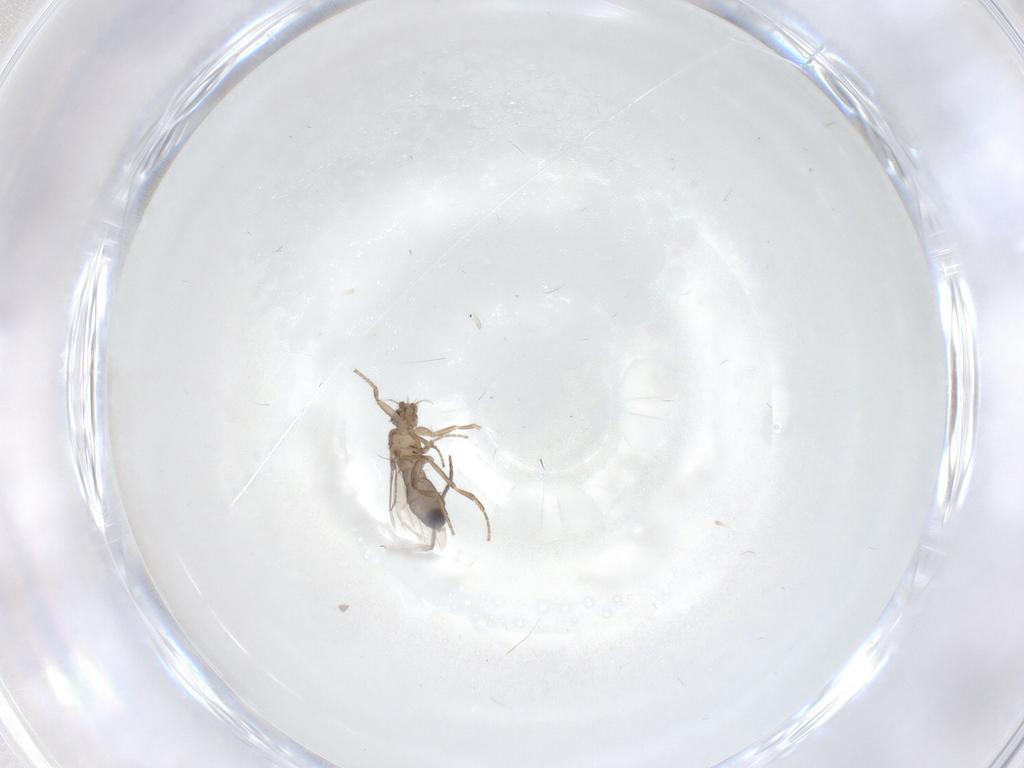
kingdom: Animalia
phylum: Arthropoda
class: Insecta
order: Diptera
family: Sciaridae
